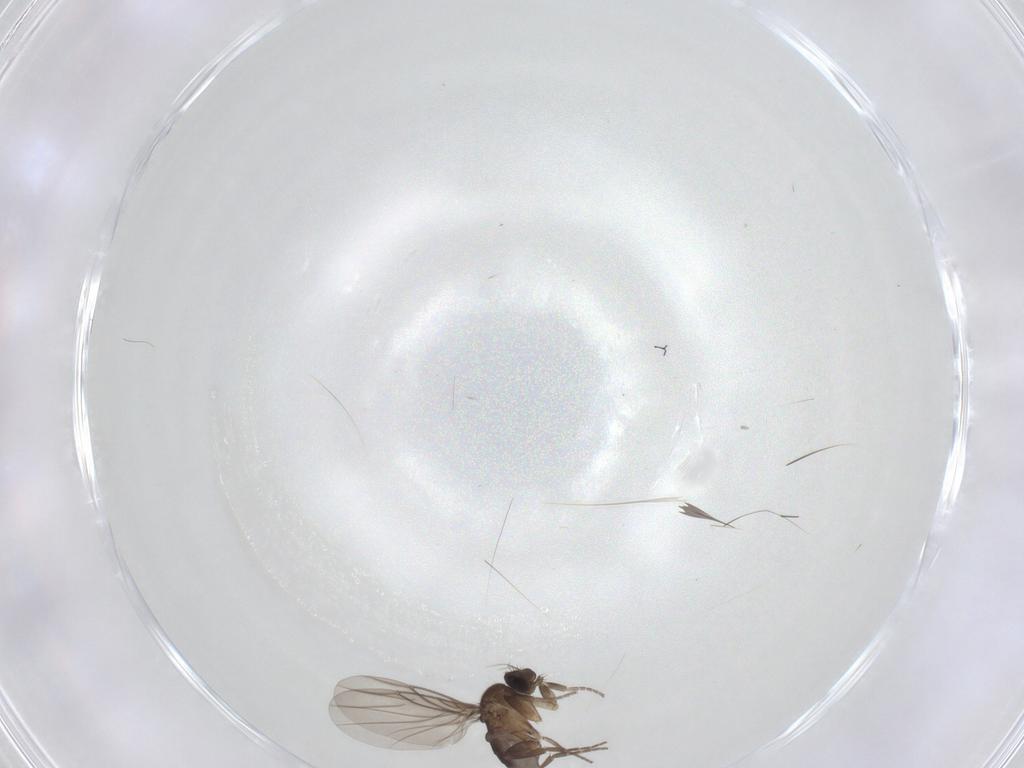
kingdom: Animalia
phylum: Arthropoda
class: Insecta
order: Diptera
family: Phoridae
